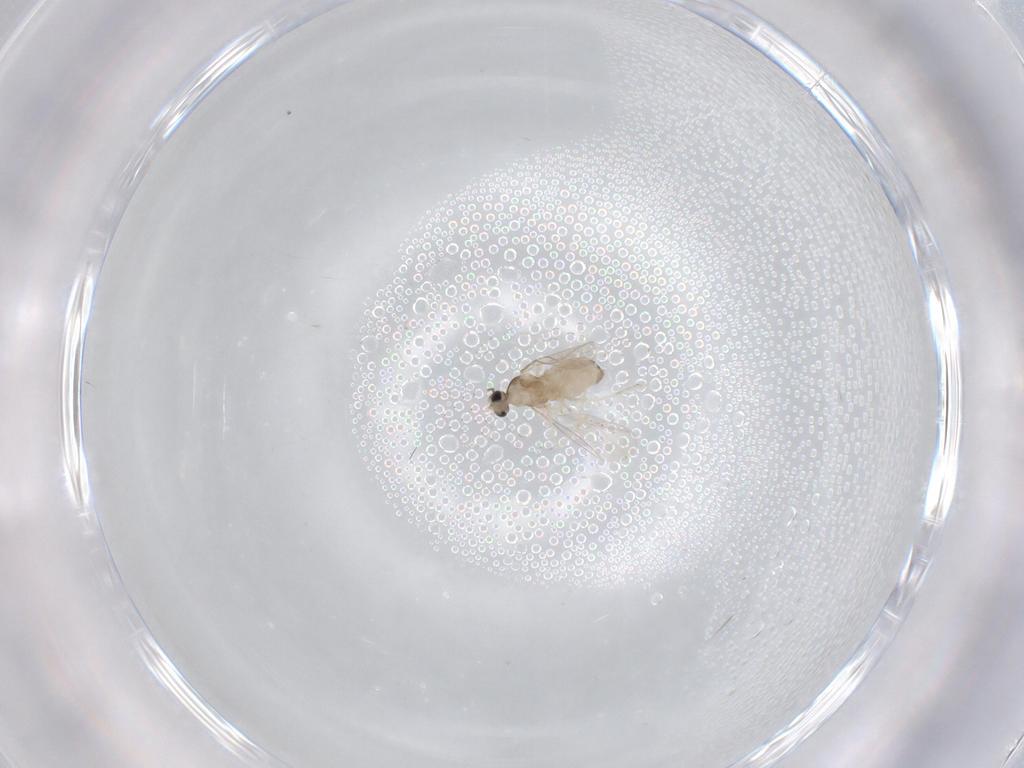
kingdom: Animalia
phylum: Arthropoda
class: Insecta
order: Diptera
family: Cecidomyiidae
